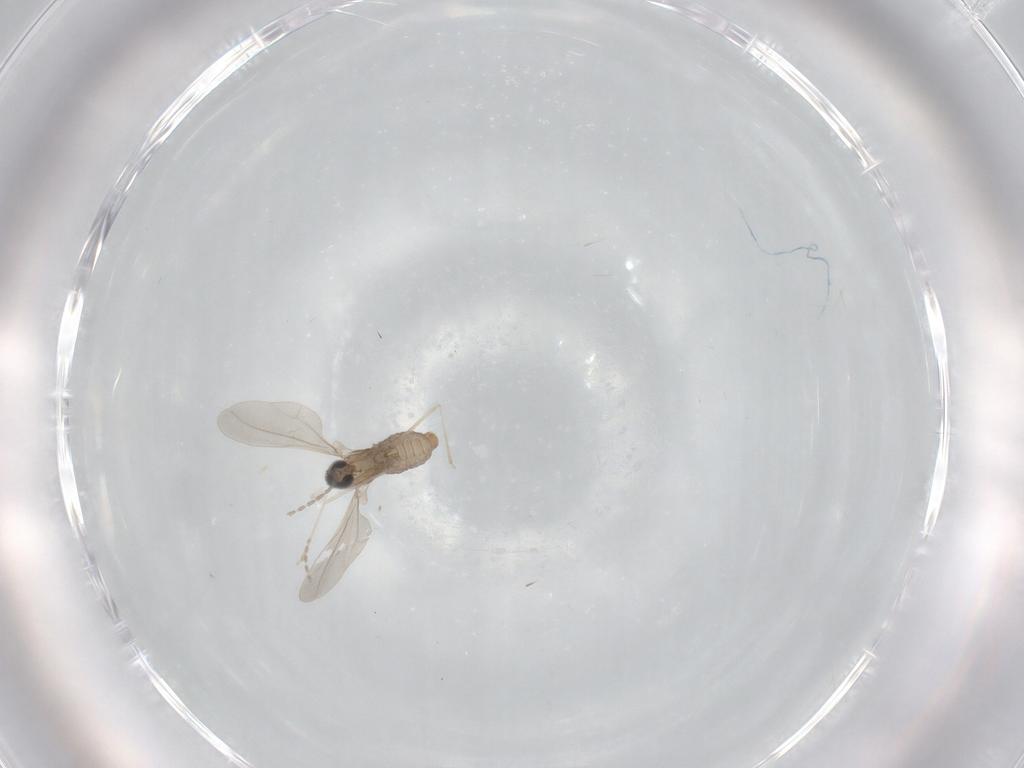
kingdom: Animalia
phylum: Arthropoda
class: Insecta
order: Diptera
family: Cecidomyiidae
